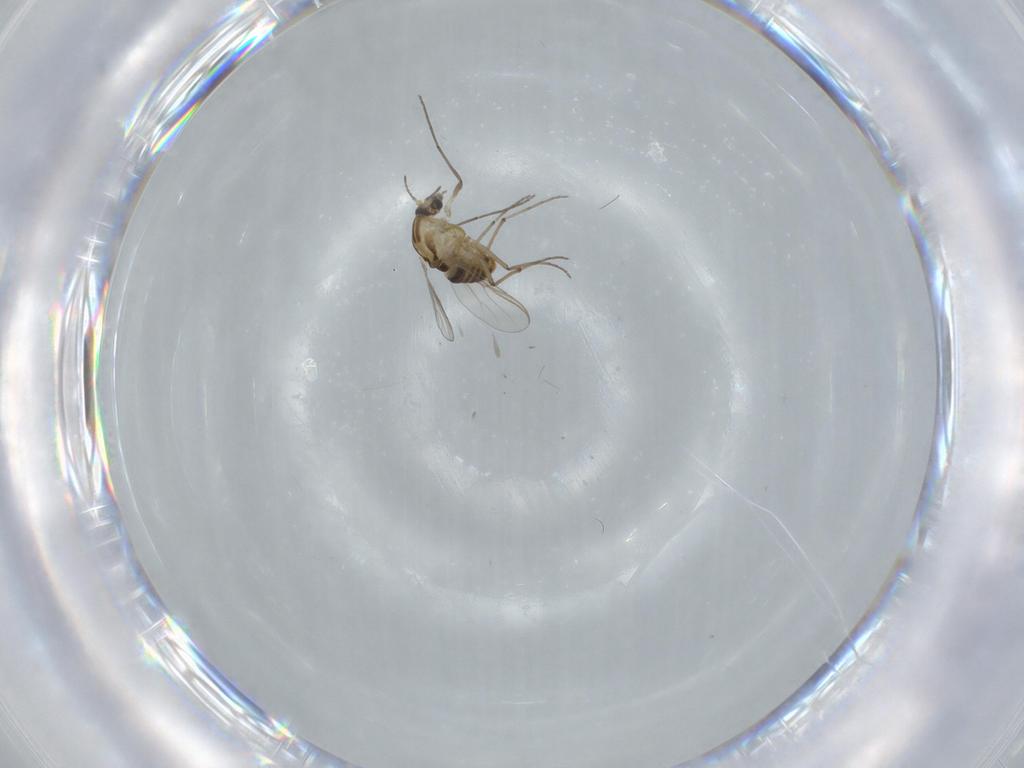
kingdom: Animalia
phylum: Arthropoda
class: Insecta
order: Diptera
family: Chironomidae
